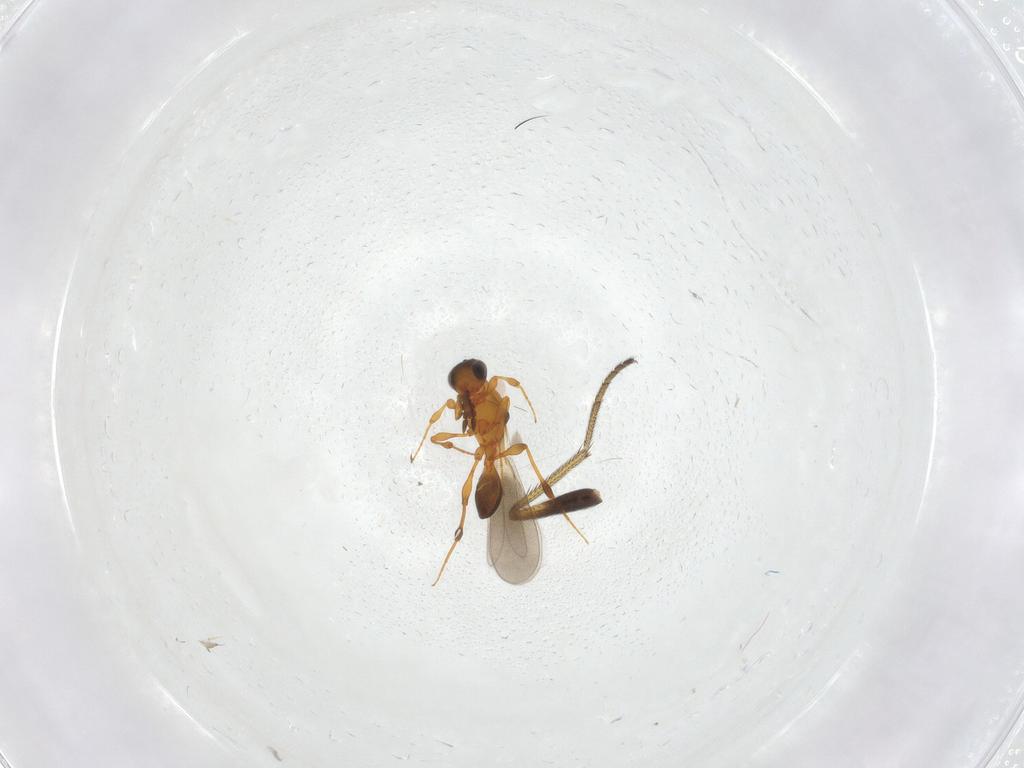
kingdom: Animalia
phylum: Arthropoda
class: Insecta
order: Hymenoptera
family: Platygastridae
